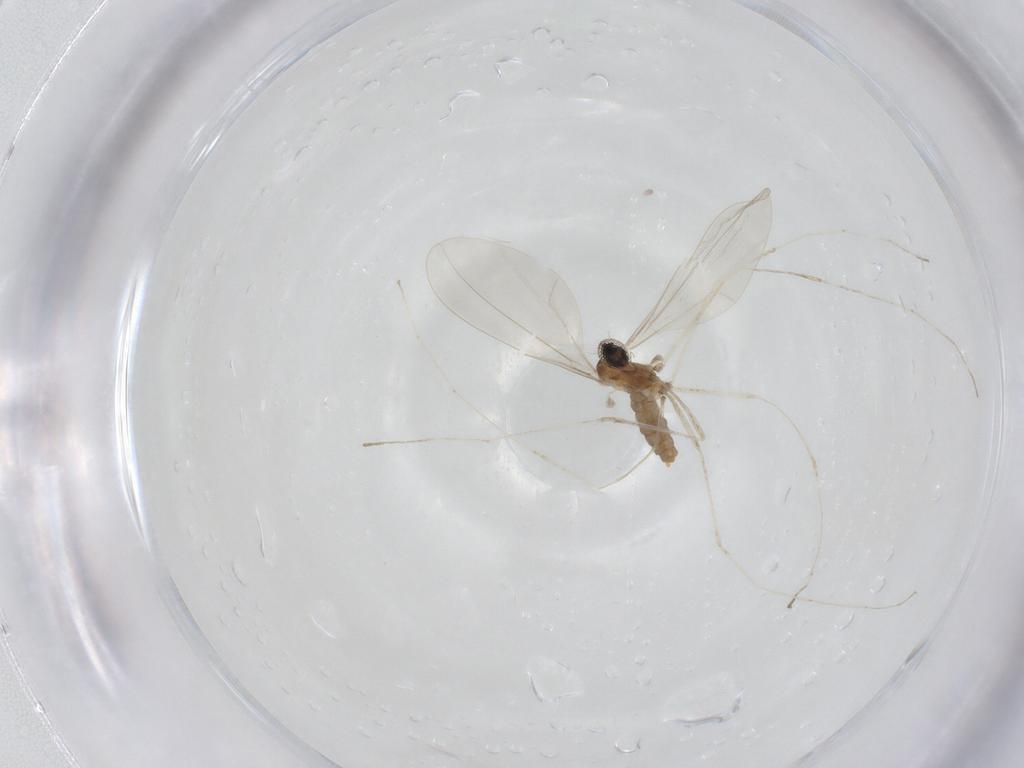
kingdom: Animalia
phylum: Arthropoda
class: Insecta
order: Diptera
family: Cecidomyiidae
